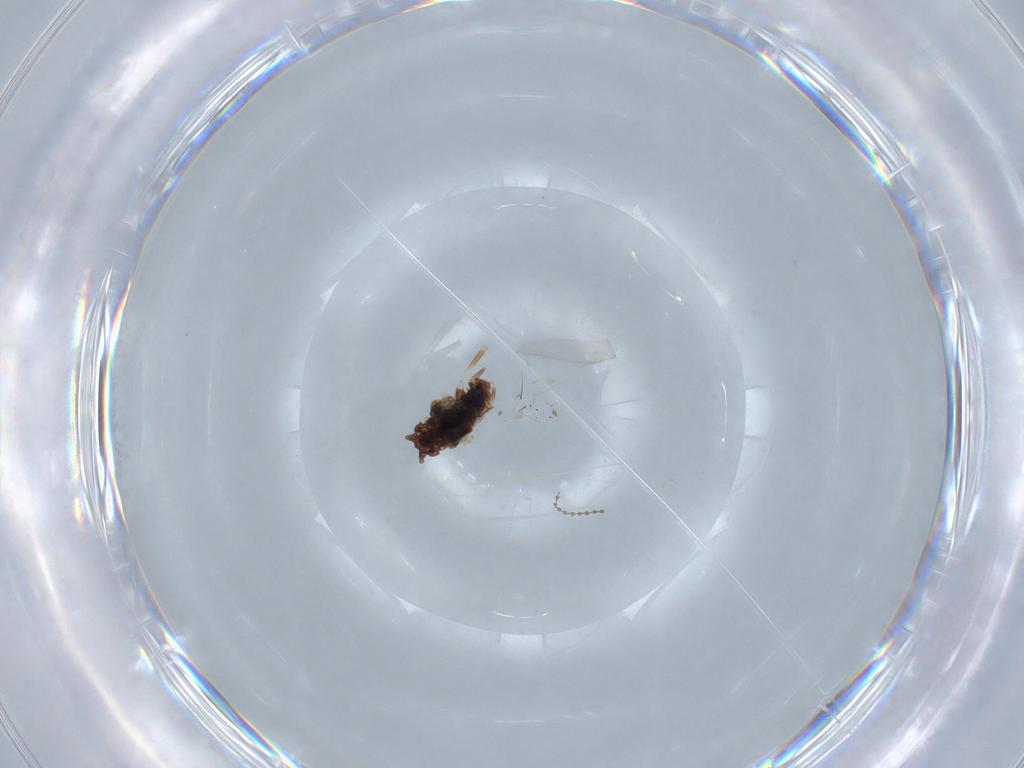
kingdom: Animalia
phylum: Arthropoda
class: Insecta
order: Hemiptera
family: Aphididae
